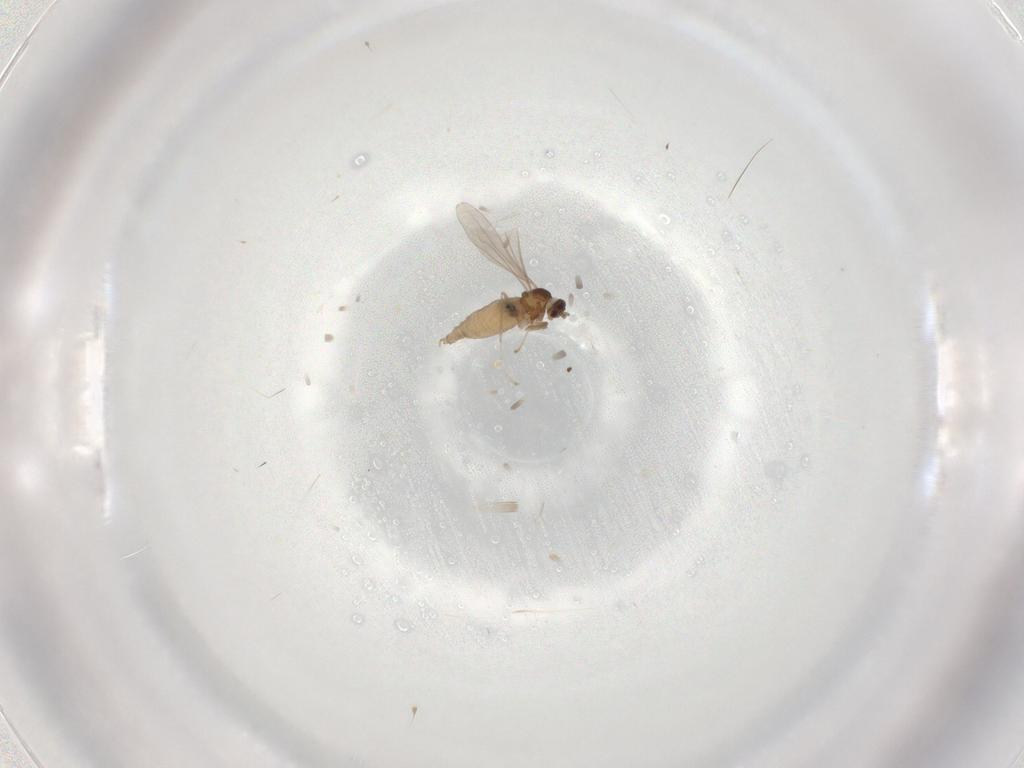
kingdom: Animalia
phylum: Arthropoda
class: Insecta
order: Diptera
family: Cecidomyiidae
